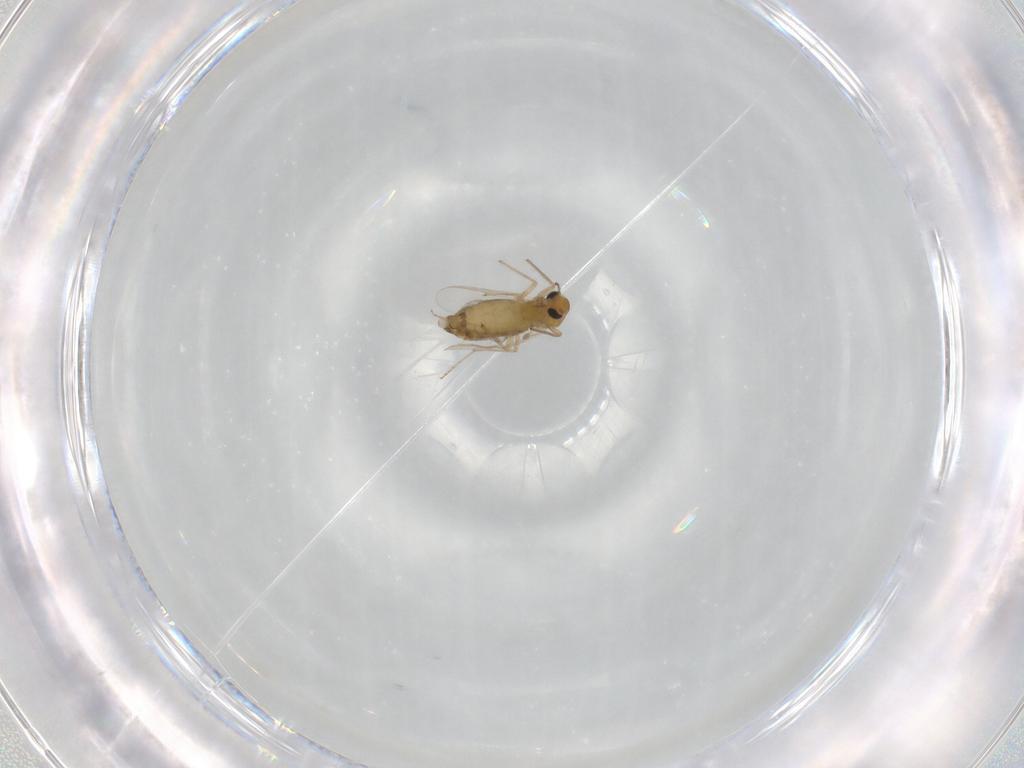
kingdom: Animalia
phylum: Arthropoda
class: Insecta
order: Diptera
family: Chironomidae
